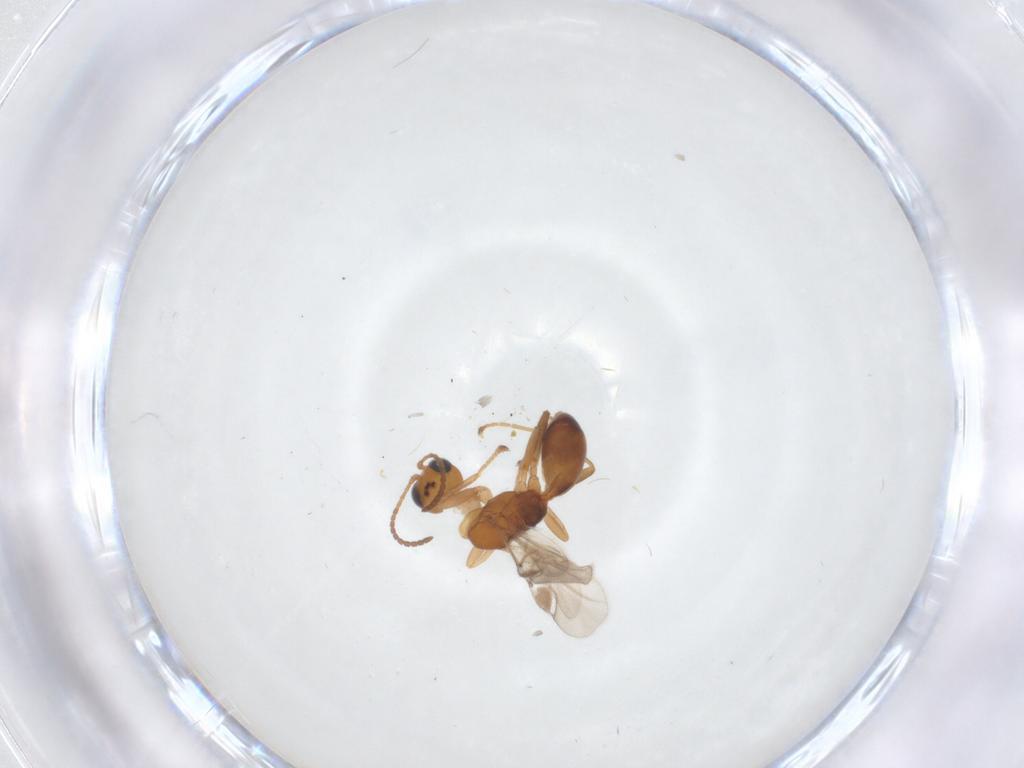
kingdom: Animalia
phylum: Arthropoda
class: Insecta
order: Hymenoptera
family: Braconidae
